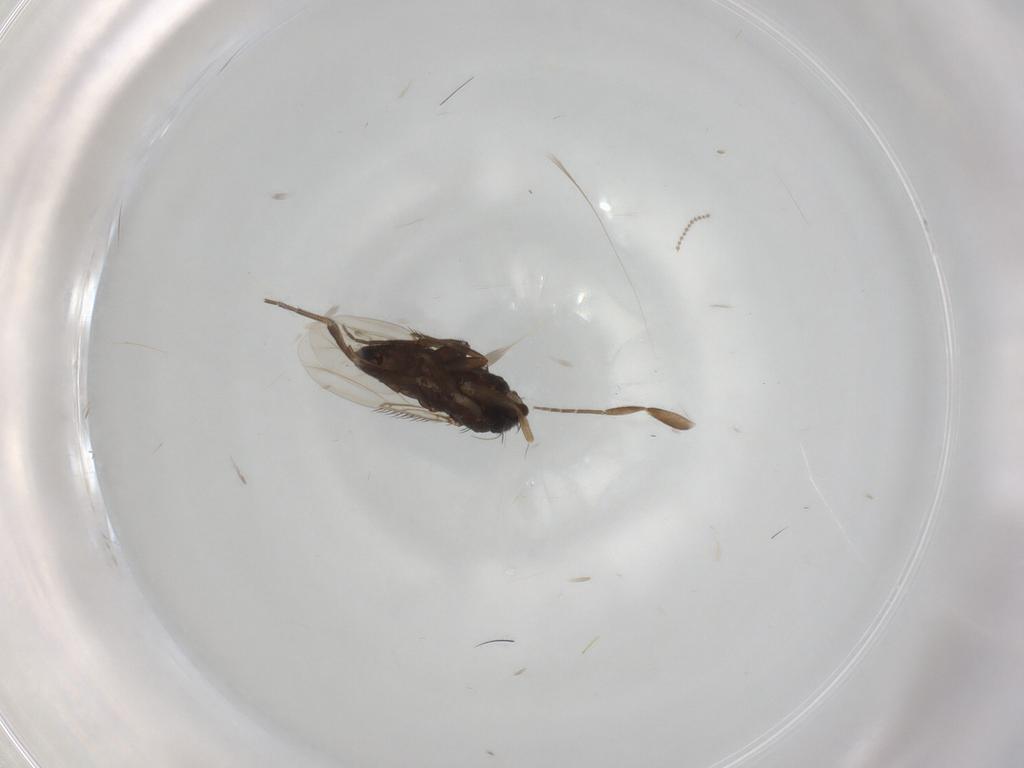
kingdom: Animalia
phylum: Arthropoda
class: Insecta
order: Diptera
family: Phoridae
